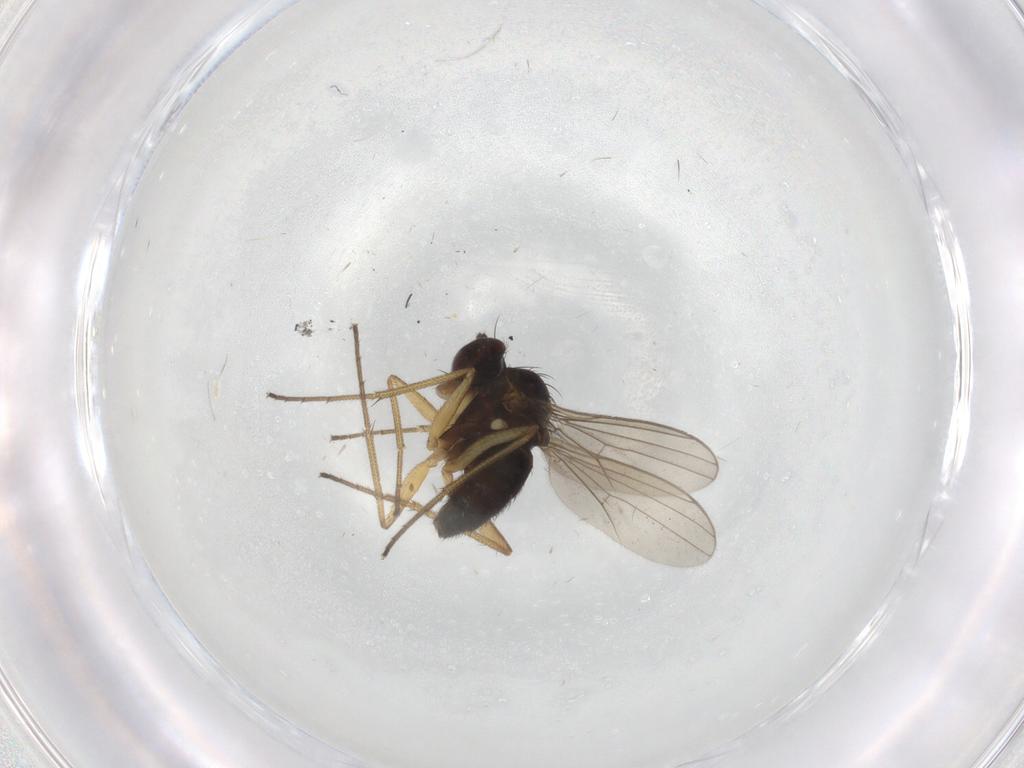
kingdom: Animalia
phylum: Arthropoda
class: Insecta
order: Diptera
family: Dolichopodidae
